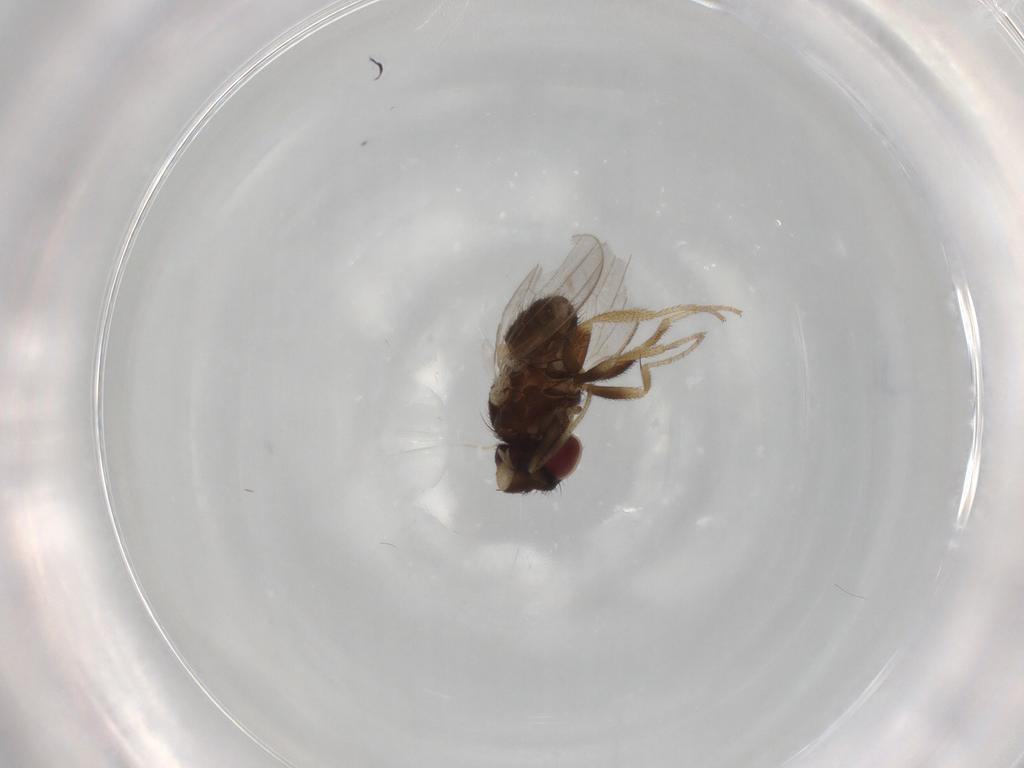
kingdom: Animalia
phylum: Arthropoda
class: Insecta
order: Diptera
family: Milichiidae
